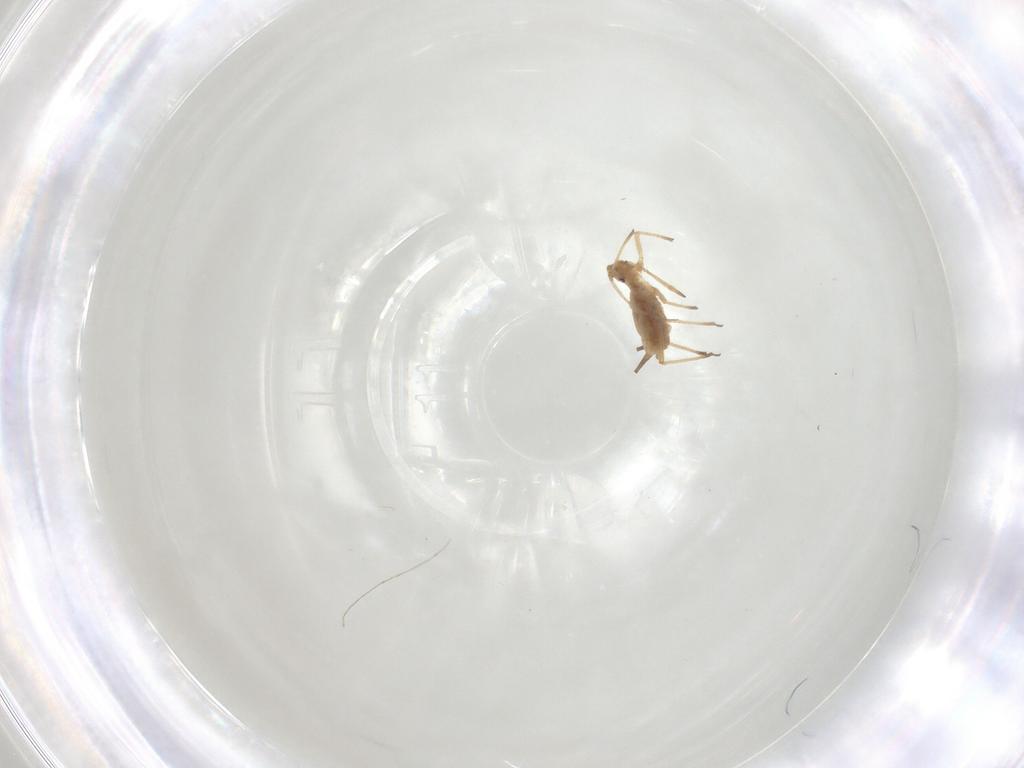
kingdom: Animalia
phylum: Arthropoda
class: Insecta
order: Hemiptera
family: Aphididae
